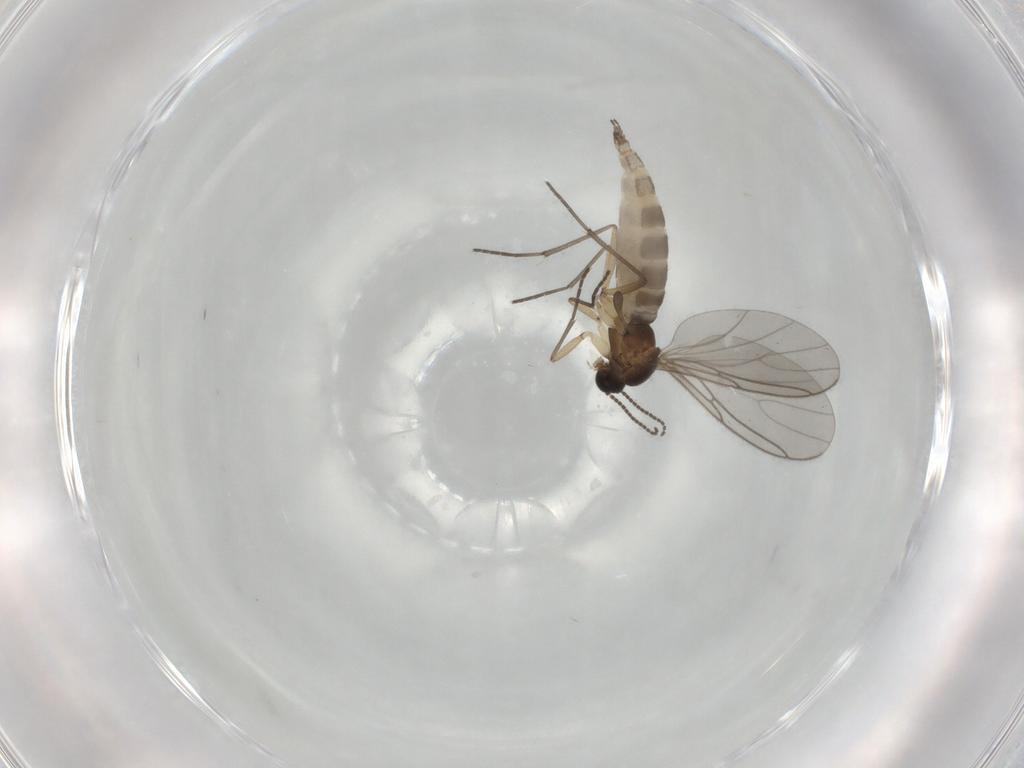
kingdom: Animalia
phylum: Arthropoda
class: Insecta
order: Diptera
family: Sciaridae
